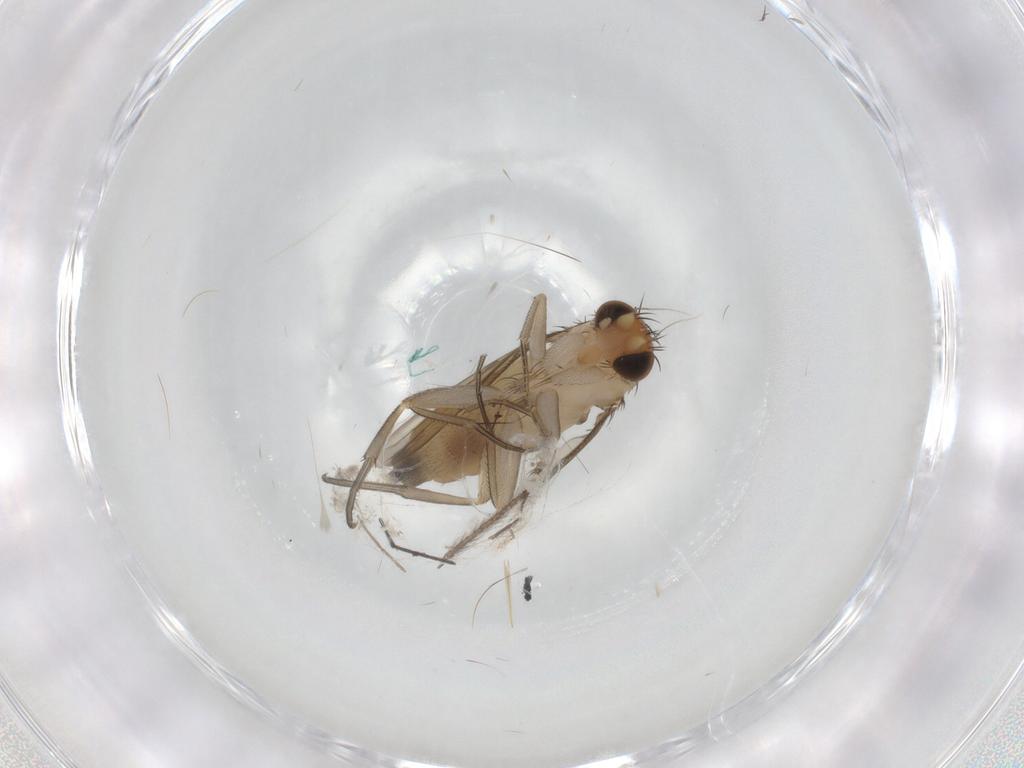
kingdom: Animalia
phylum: Arthropoda
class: Insecta
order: Diptera
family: Phoridae
